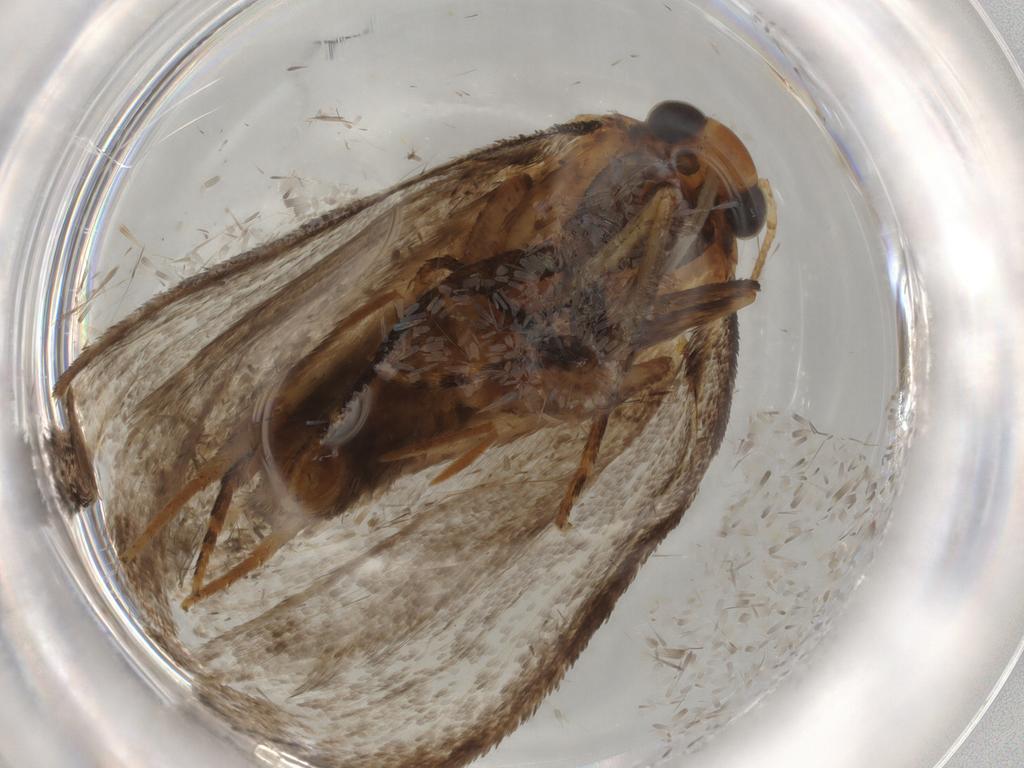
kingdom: Animalia
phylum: Arthropoda
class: Insecta
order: Lepidoptera
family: Oecophoridae
